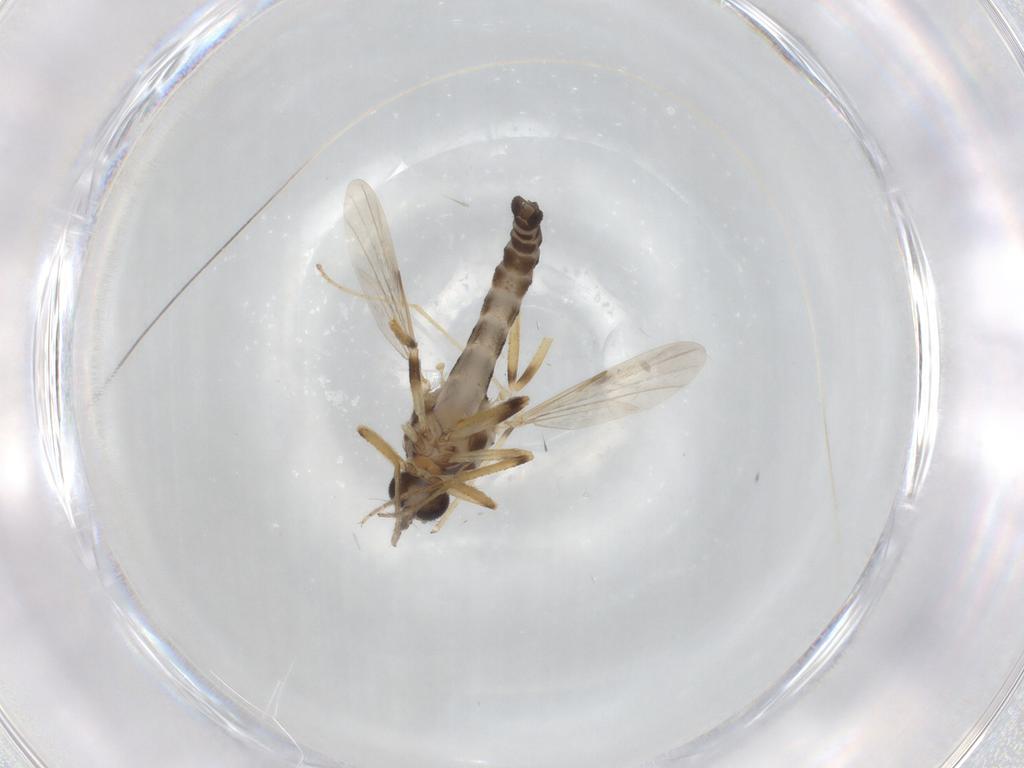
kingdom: Animalia
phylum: Arthropoda
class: Insecta
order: Diptera
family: Ceratopogonidae
